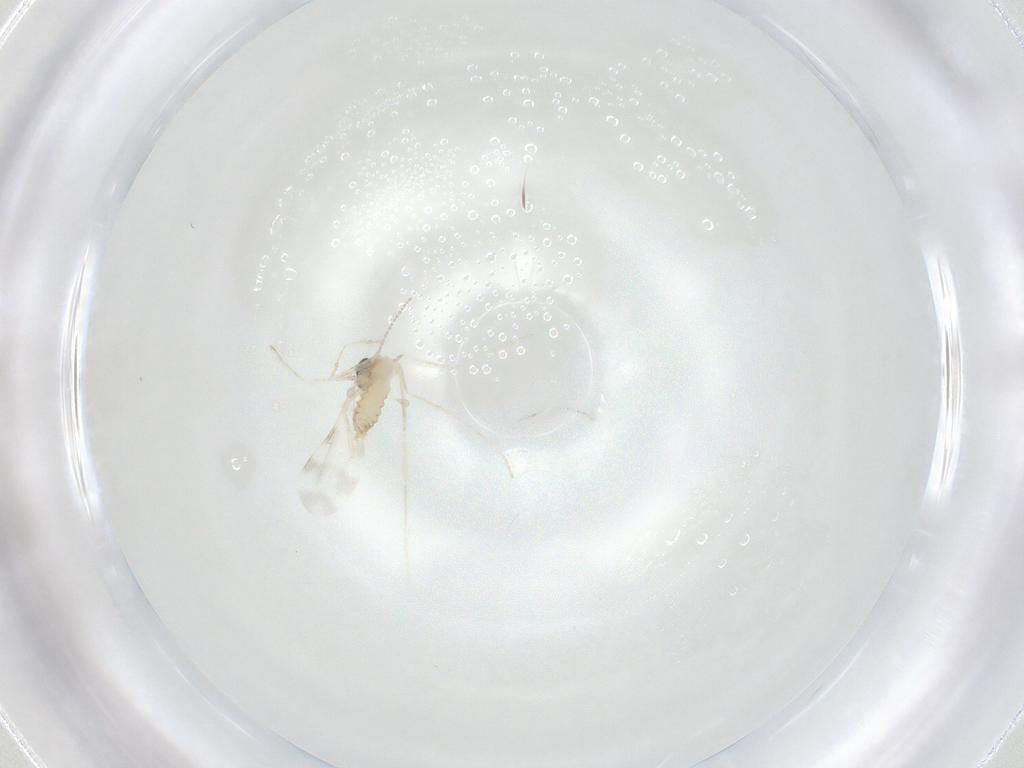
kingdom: Animalia
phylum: Arthropoda
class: Insecta
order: Diptera
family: Cecidomyiidae
